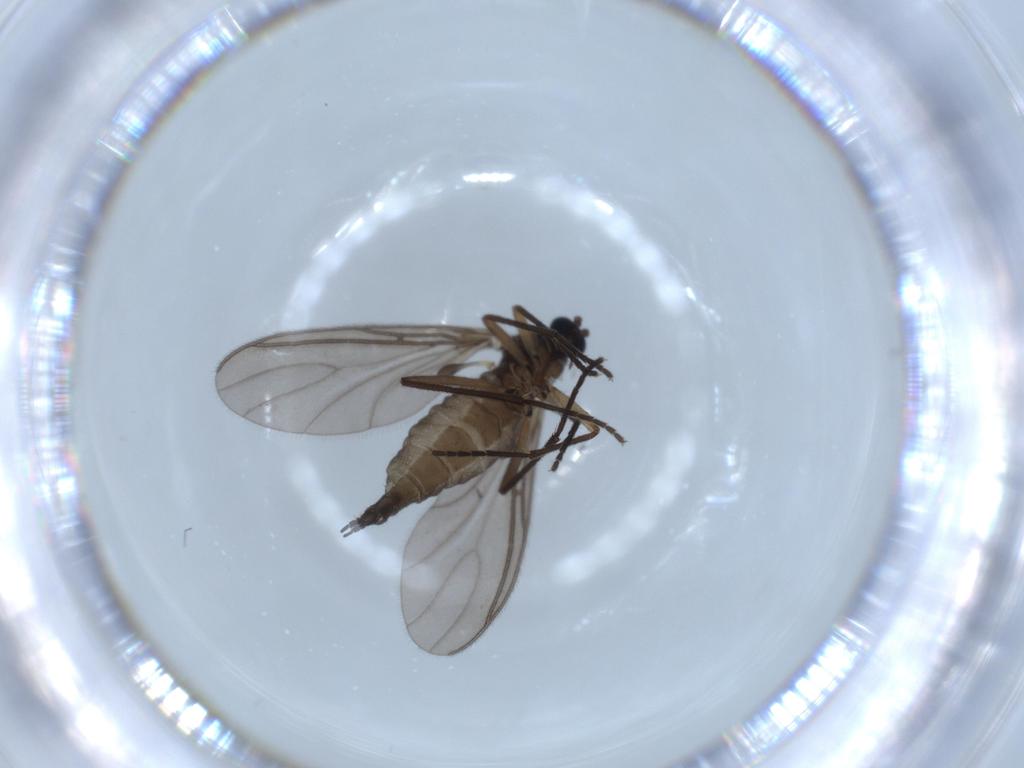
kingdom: Animalia
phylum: Arthropoda
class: Insecta
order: Diptera
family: Sciaridae
